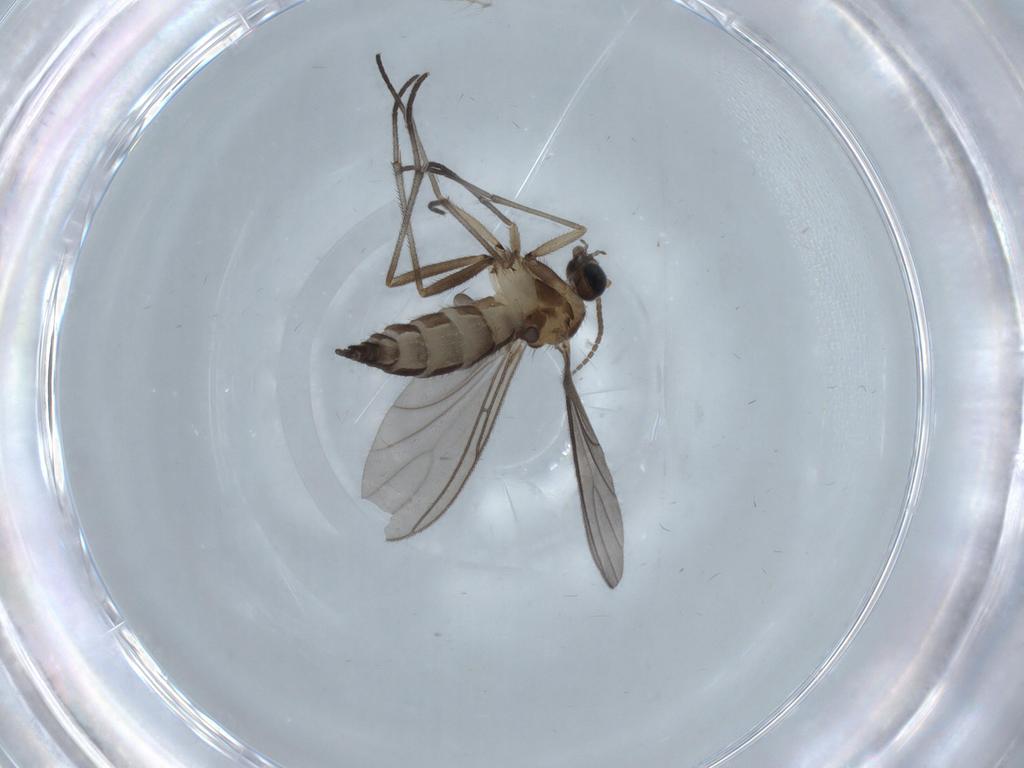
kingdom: Animalia
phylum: Arthropoda
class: Insecta
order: Diptera
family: Sciaridae
